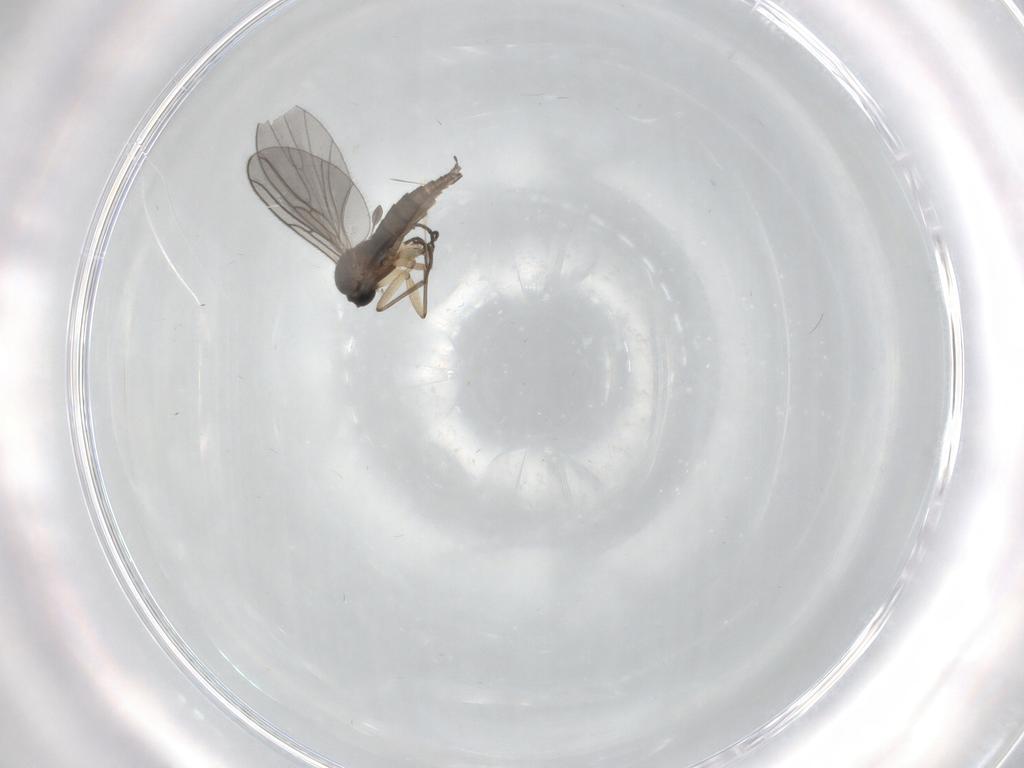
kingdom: Animalia
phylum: Arthropoda
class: Insecta
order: Diptera
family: Sciaridae
